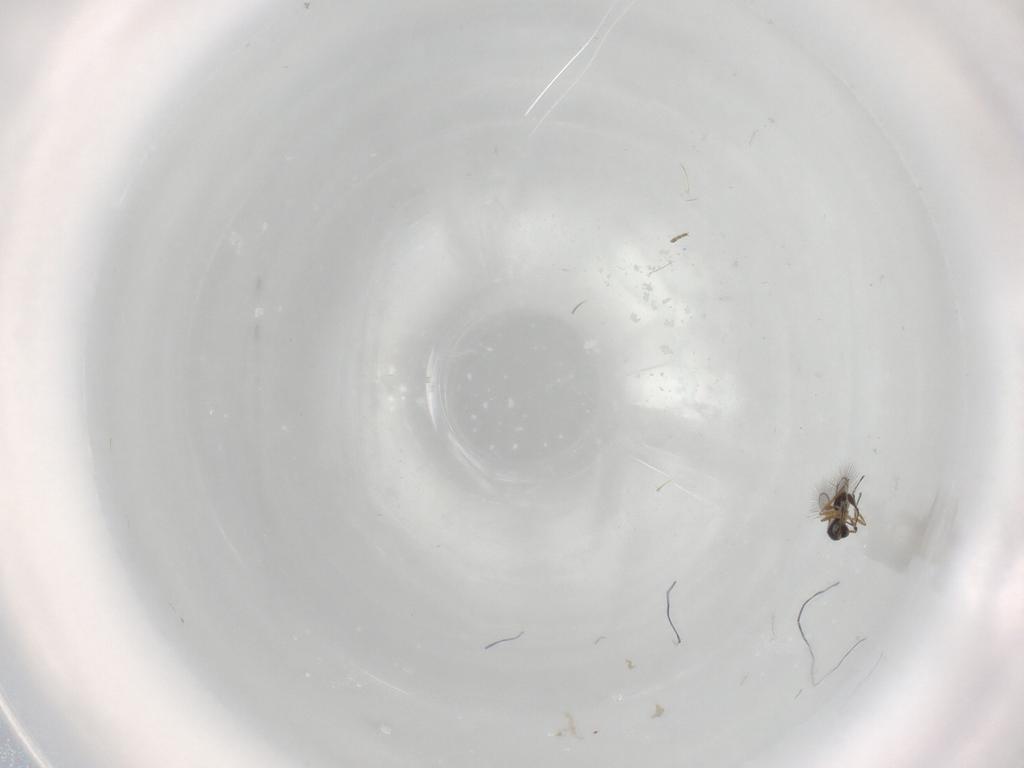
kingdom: Animalia
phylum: Arthropoda
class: Insecta
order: Hymenoptera
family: Mymaridae
